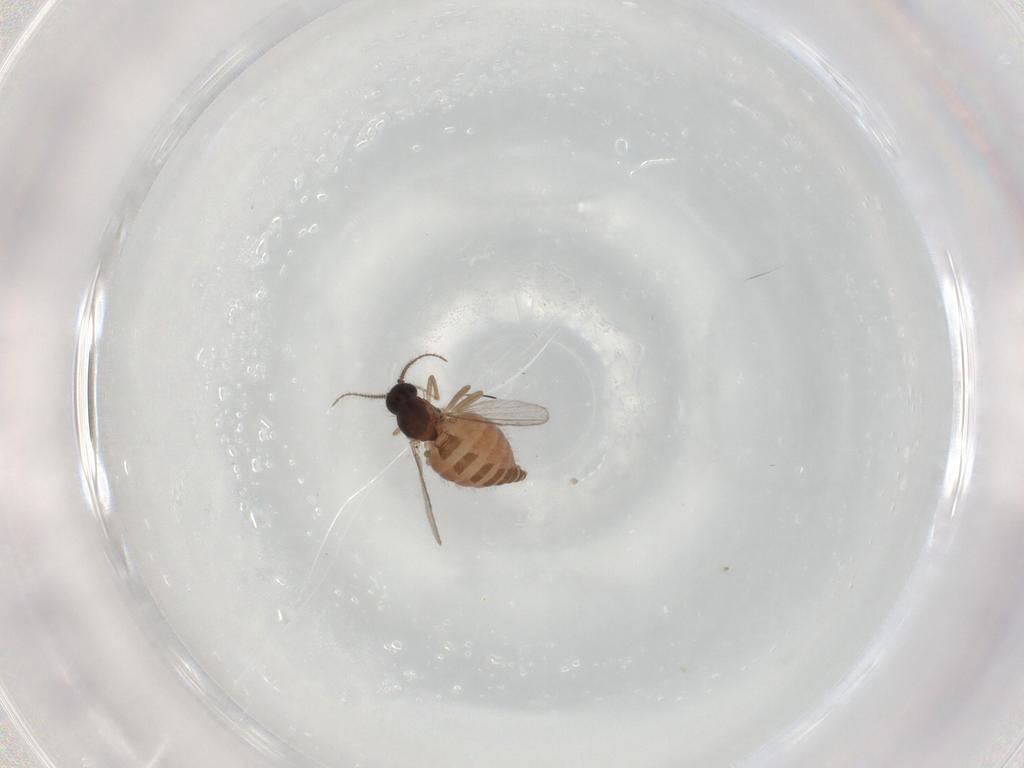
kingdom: Animalia
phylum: Arthropoda
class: Insecta
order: Diptera
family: Ceratopogonidae
